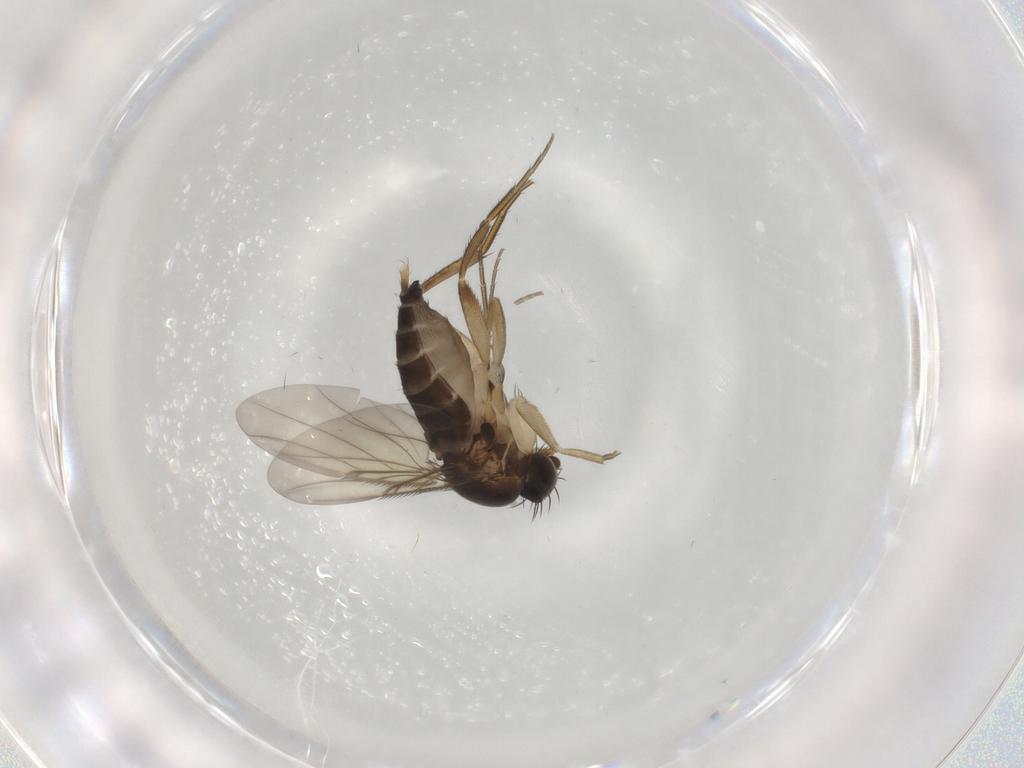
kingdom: Animalia
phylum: Arthropoda
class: Insecta
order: Diptera
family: Phoridae
